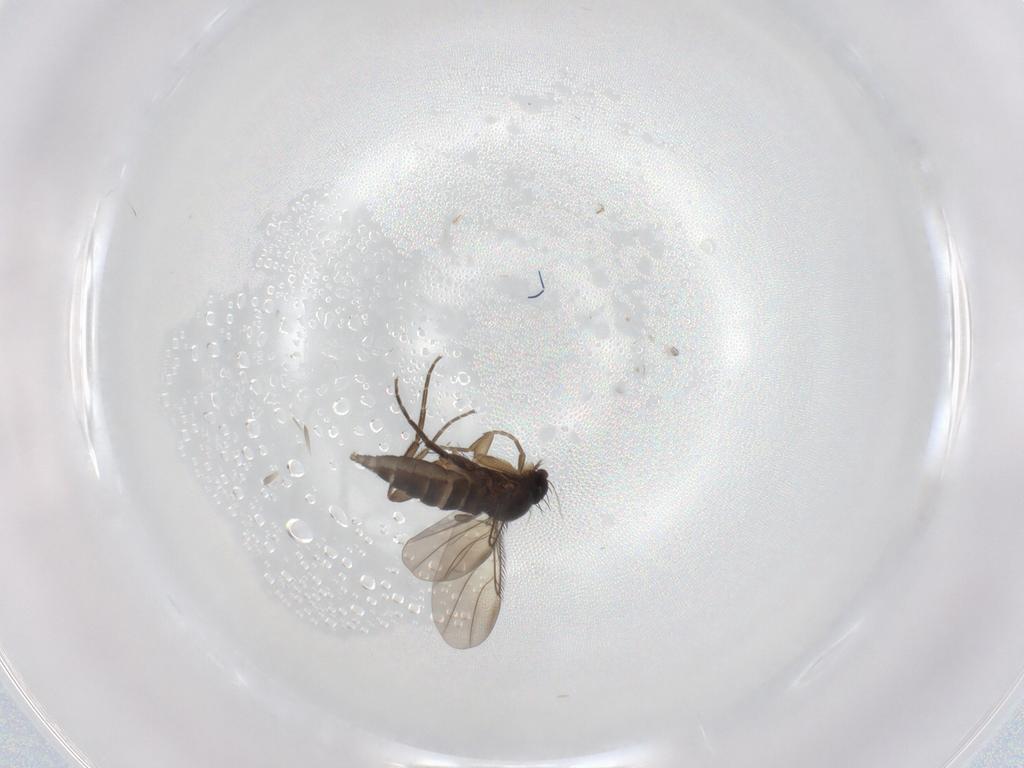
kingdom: Animalia
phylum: Arthropoda
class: Insecta
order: Diptera
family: Phoridae
